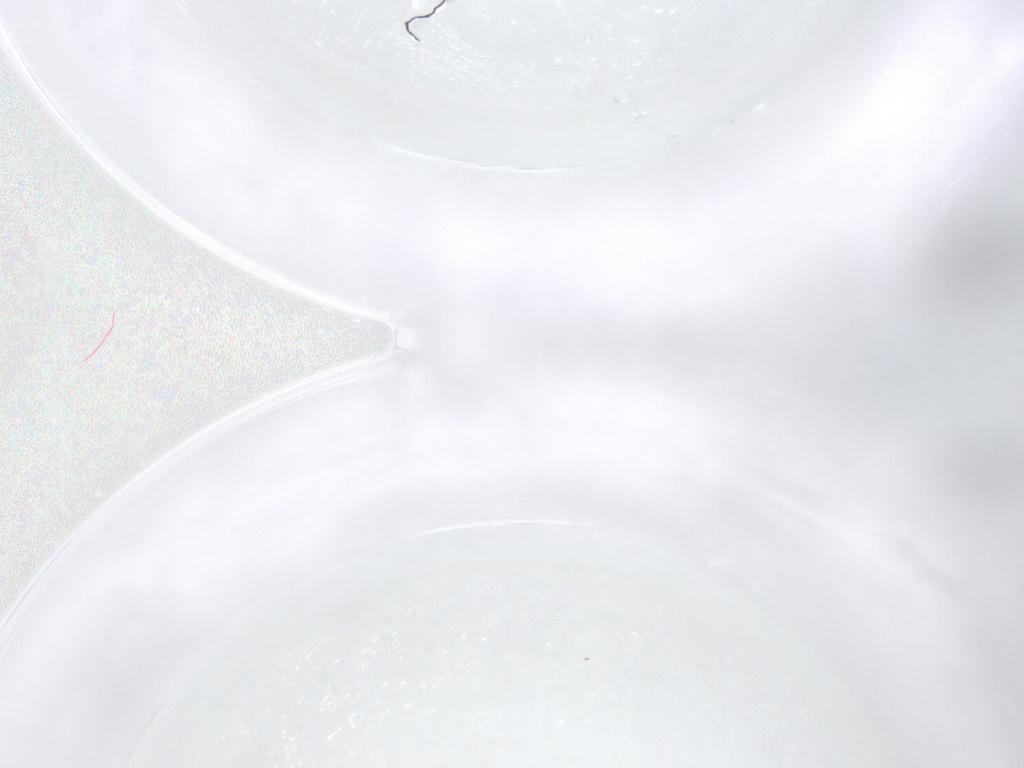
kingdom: Animalia
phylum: Arthropoda
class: Insecta
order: Diptera
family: Psychodidae
